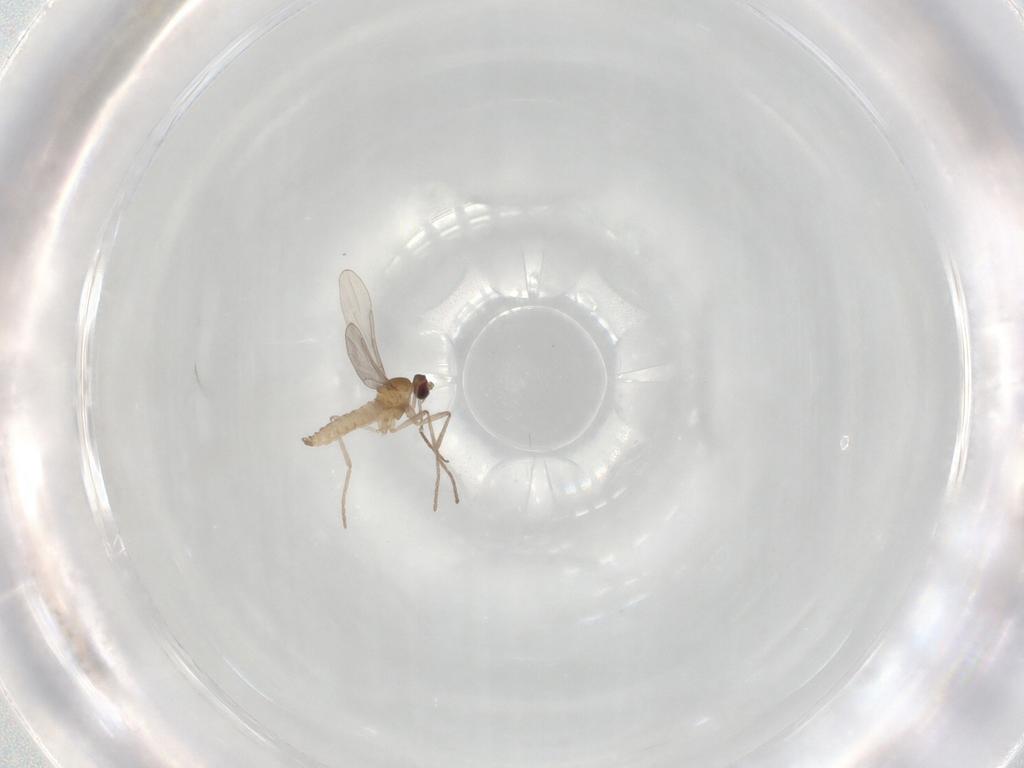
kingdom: Animalia
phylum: Arthropoda
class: Insecta
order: Diptera
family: Cecidomyiidae
